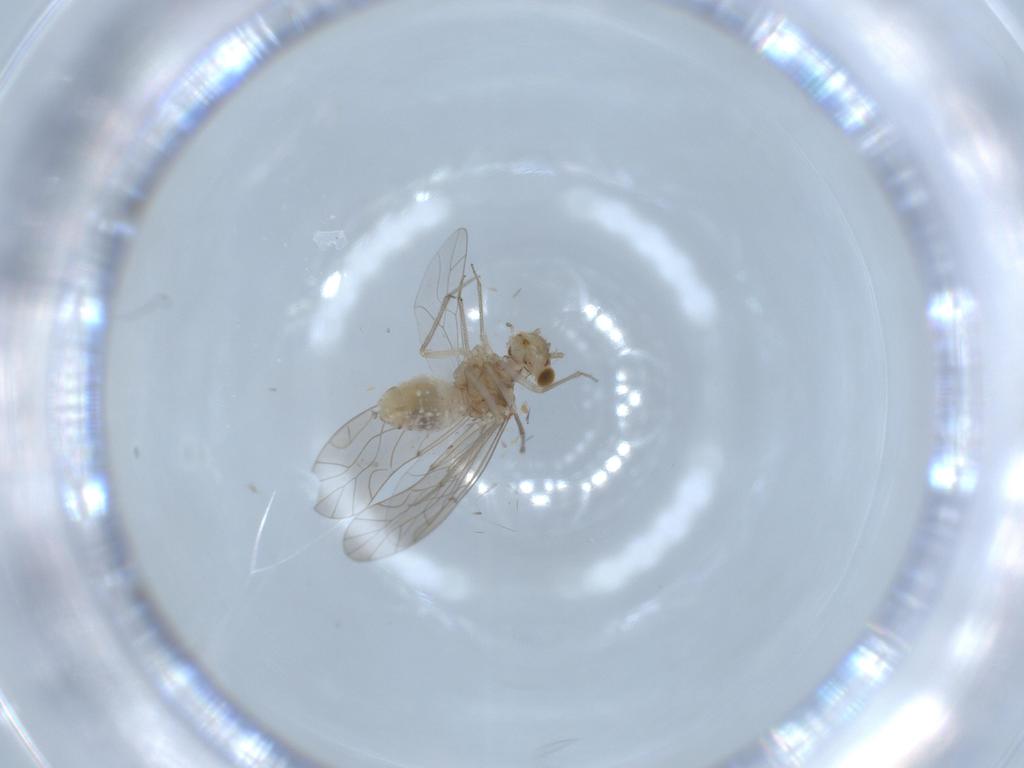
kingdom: Animalia
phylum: Arthropoda
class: Insecta
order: Psocodea
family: Lachesillidae
